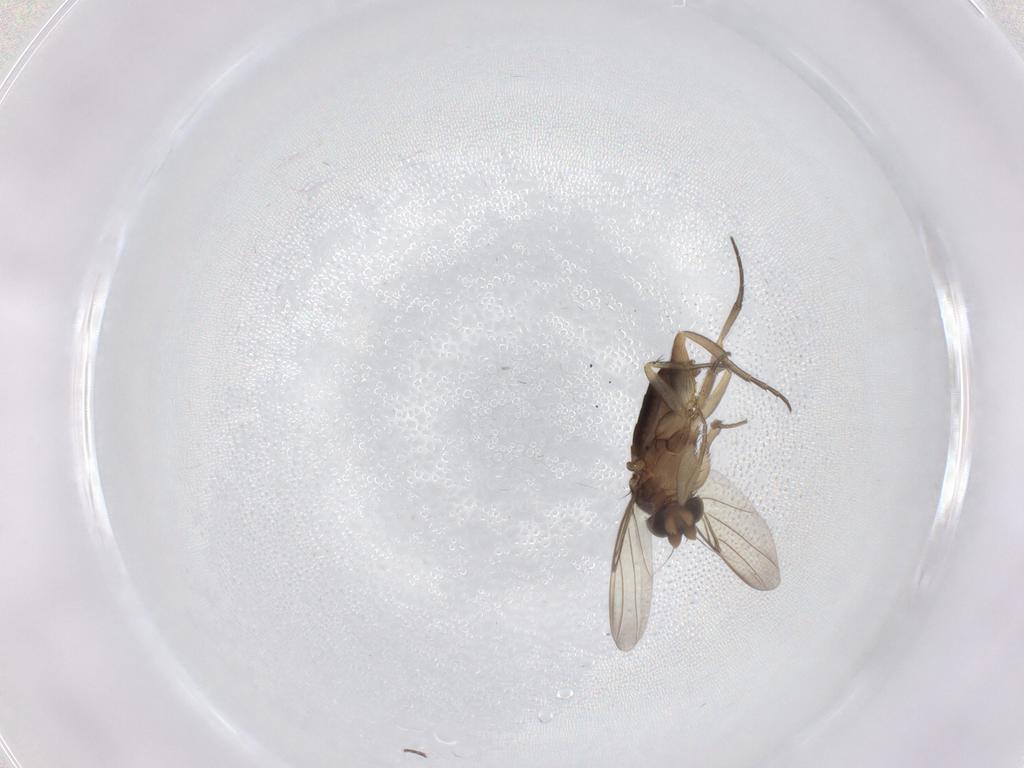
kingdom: Animalia
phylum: Arthropoda
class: Insecta
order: Diptera
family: Phoridae
